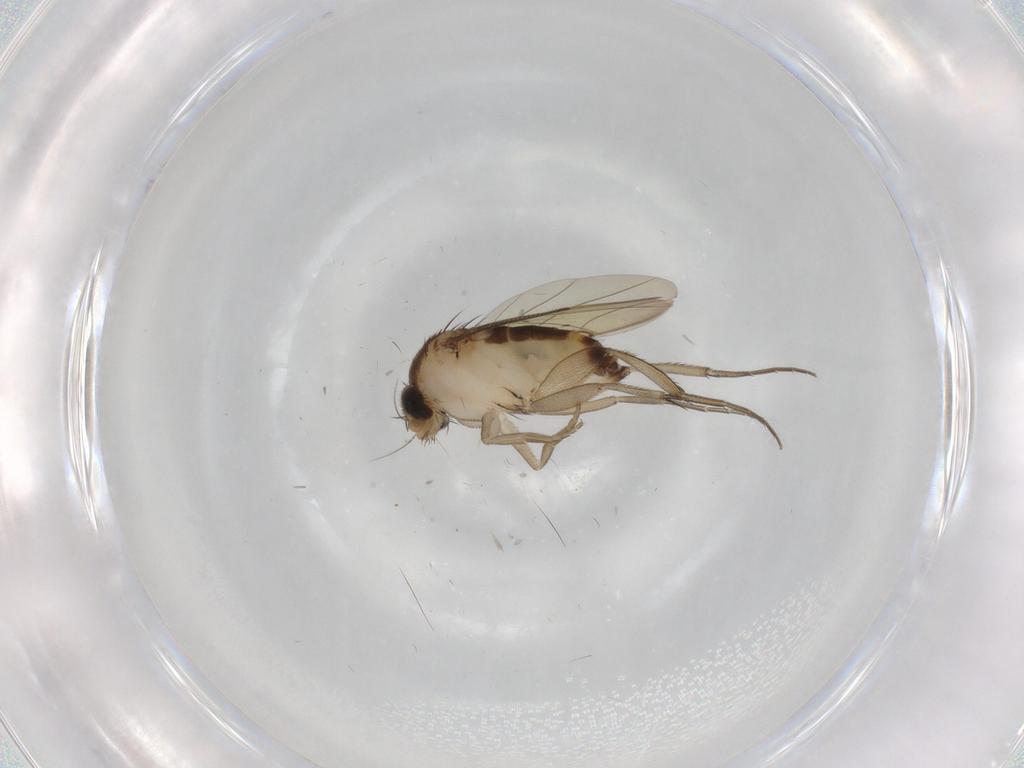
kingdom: Animalia
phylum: Arthropoda
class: Insecta
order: Diptera
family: Phoridae
